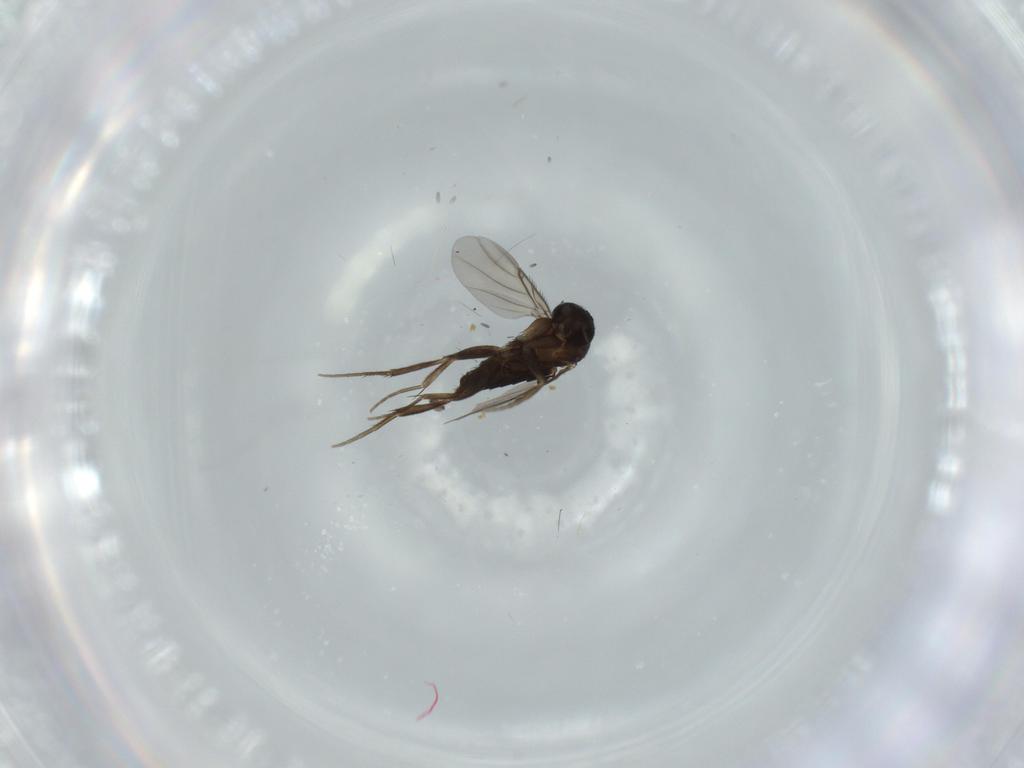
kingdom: Animalia
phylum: Arthropoda
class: Insecta
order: Diptera
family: Phoridae
